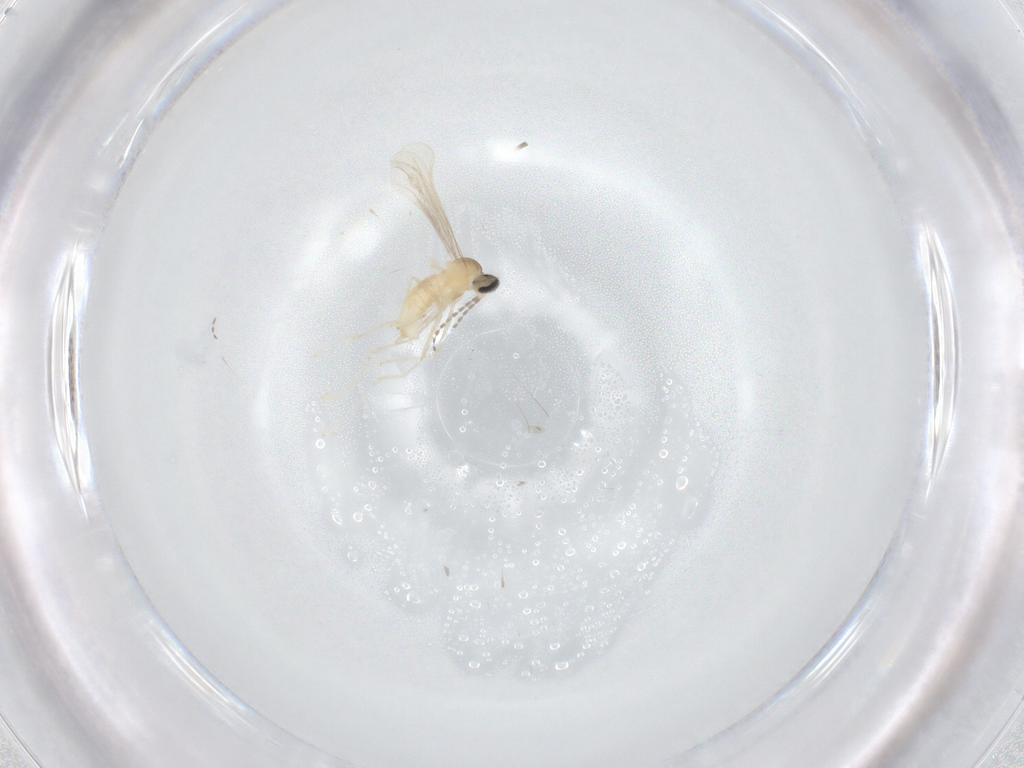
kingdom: Animalia
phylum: Arthropoda
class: Insecta
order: Diptera
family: Cecidomyiidae
